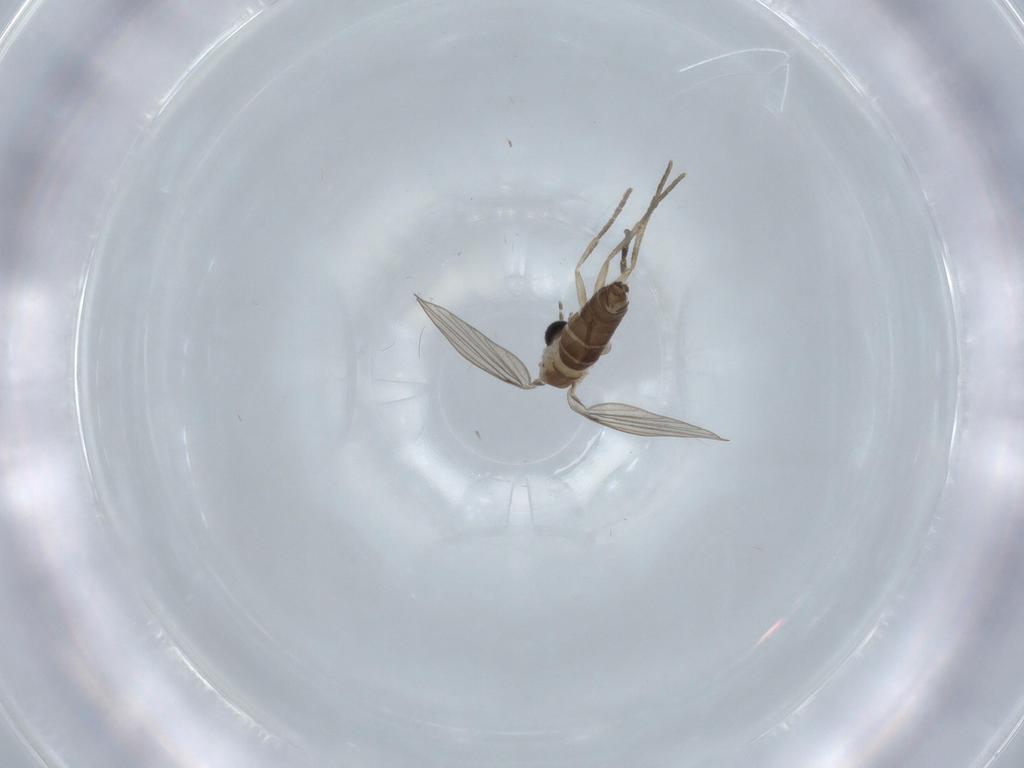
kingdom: Animalia
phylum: Arthropoda
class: Insecta
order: Diptera
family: Psychodidae
